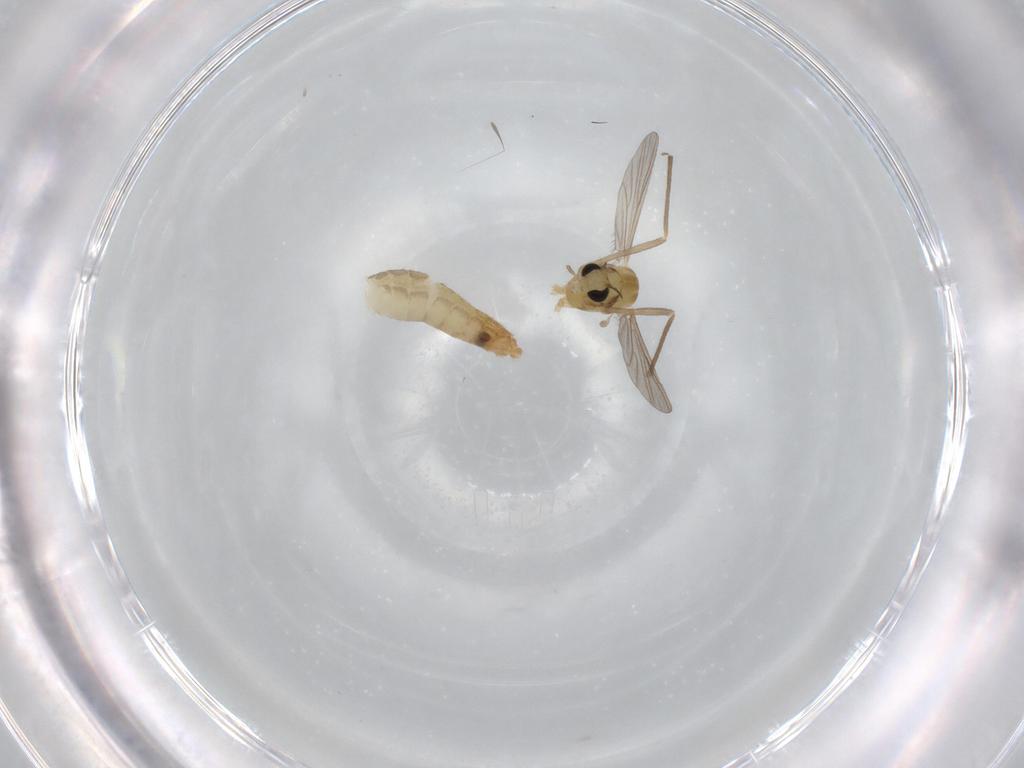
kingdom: Animalia
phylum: Arthropoda
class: Insecta
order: Diptera
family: Chironomidae
